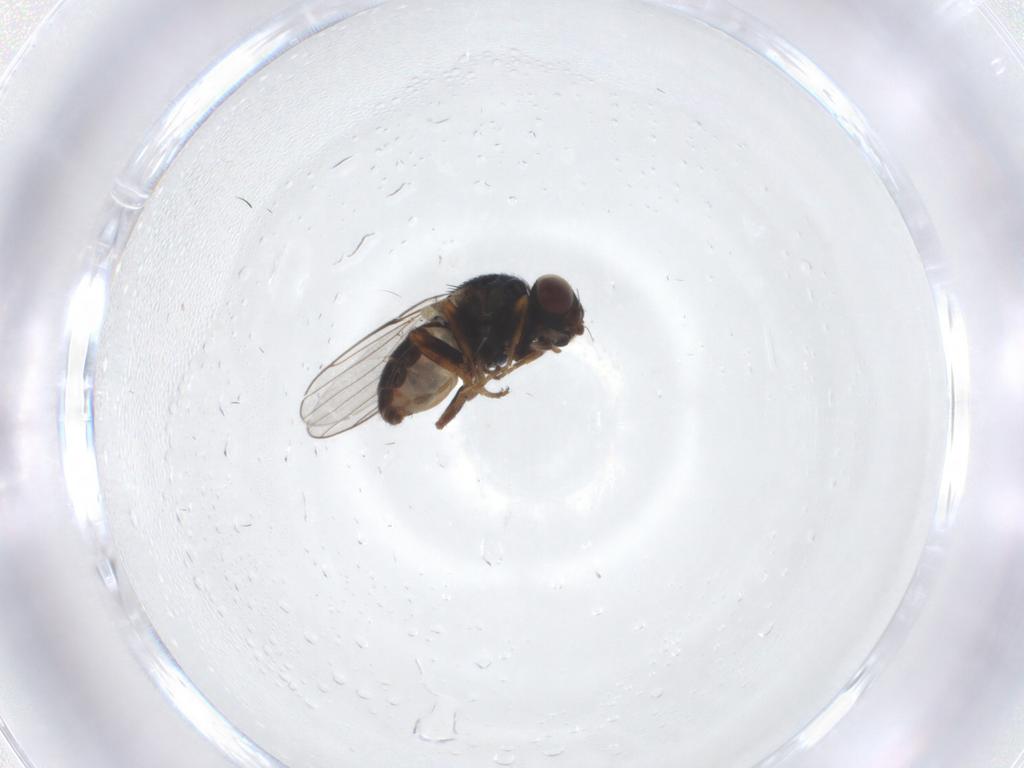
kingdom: Animalia
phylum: Arthropoda
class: Insecta
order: Diptera
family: Chloropidae
